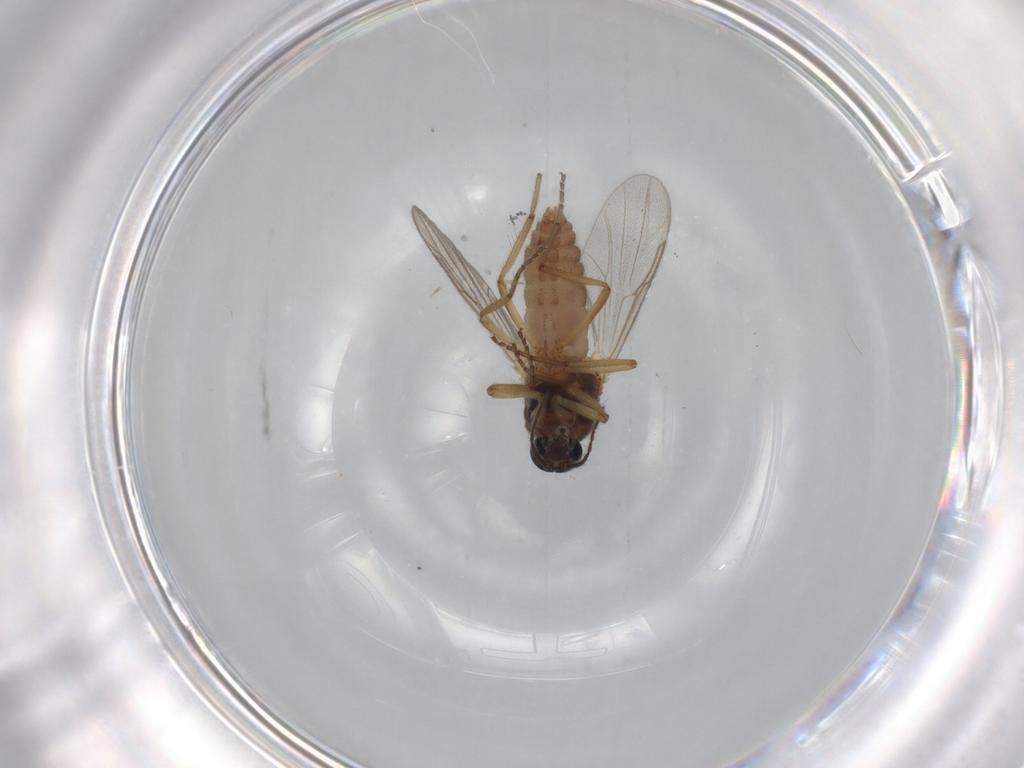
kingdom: Animalia
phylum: Arthropoda
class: Insecta
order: Diptera
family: Ceratopogonidae
